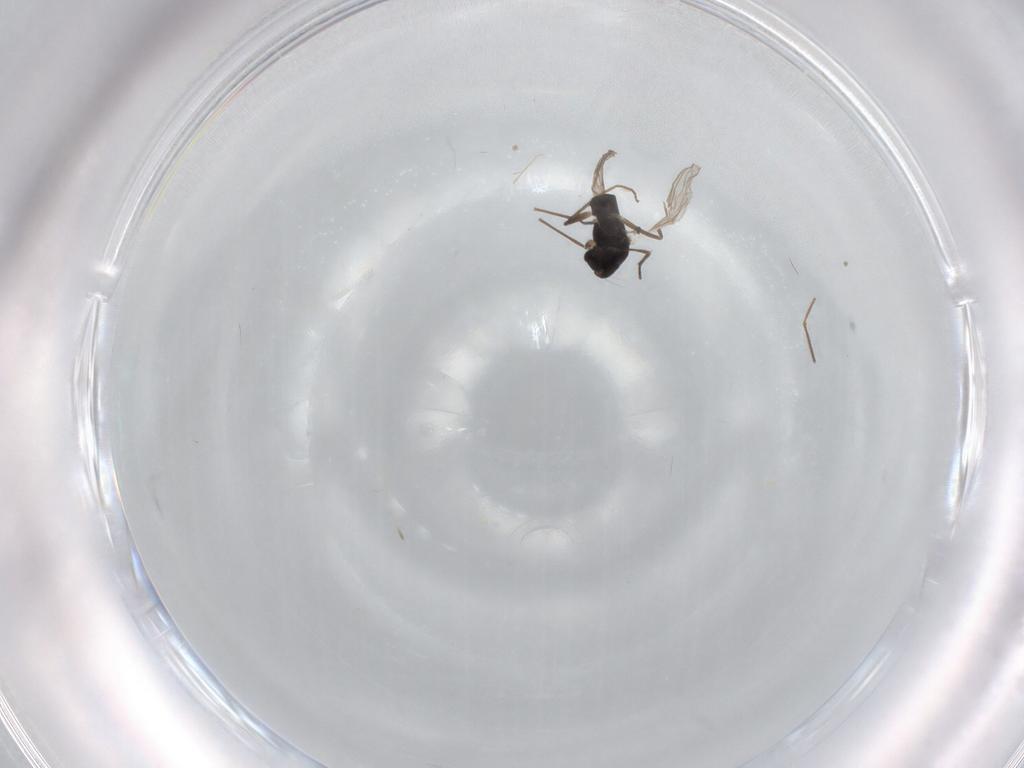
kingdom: Animalia
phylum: Arthropoda
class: Insecta
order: Diptera
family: Chironomidae
